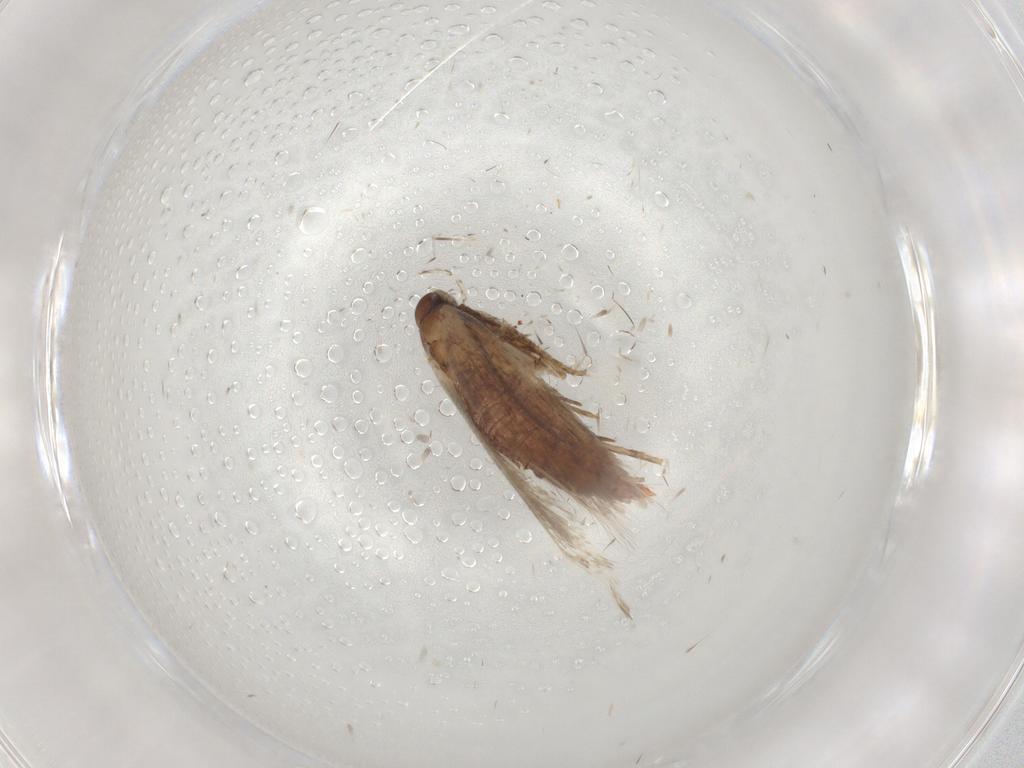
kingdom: Animalia
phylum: Arthropoda
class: Insecta
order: Lepidoptera
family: Gelechiidae
